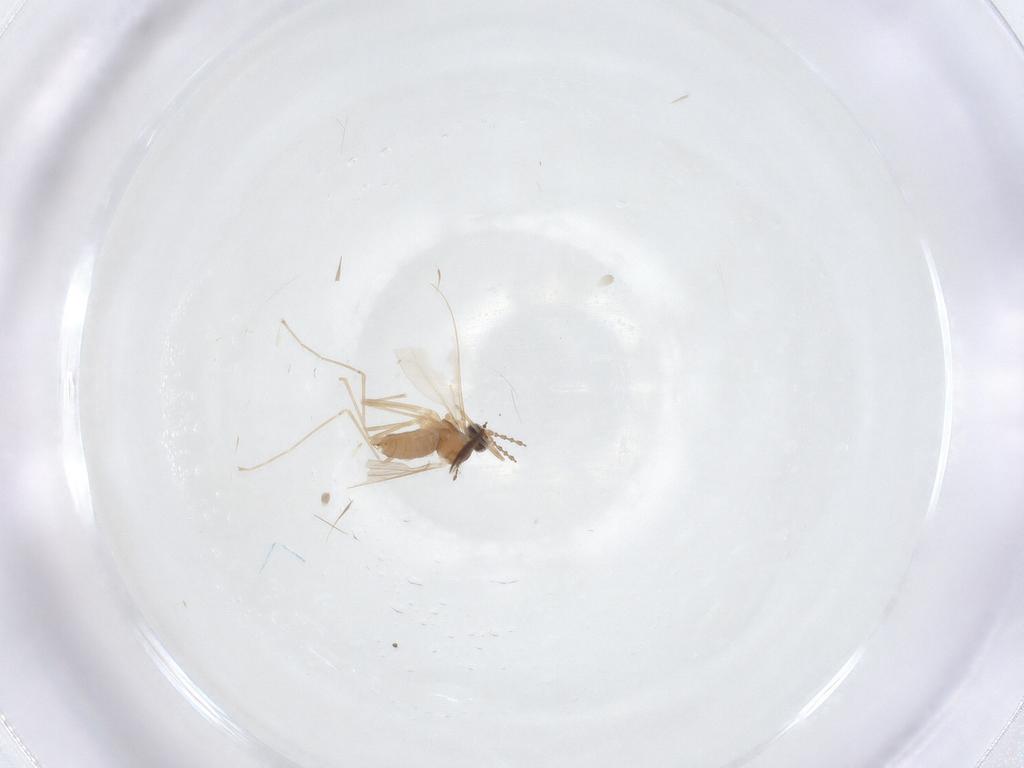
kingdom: Animalia
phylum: Arthropoda
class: Insecta
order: Diptera
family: Cecidomyiidae
